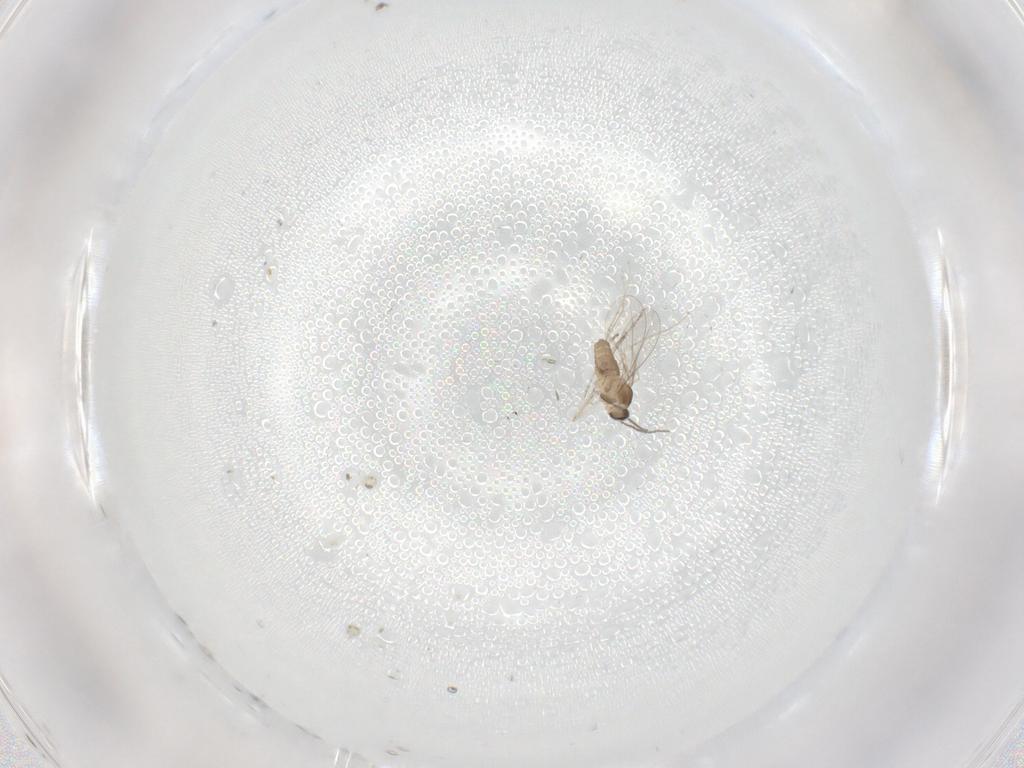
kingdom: Animalia
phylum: Arthropoda
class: Insecta
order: Diptera
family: Cecidomyiidae
